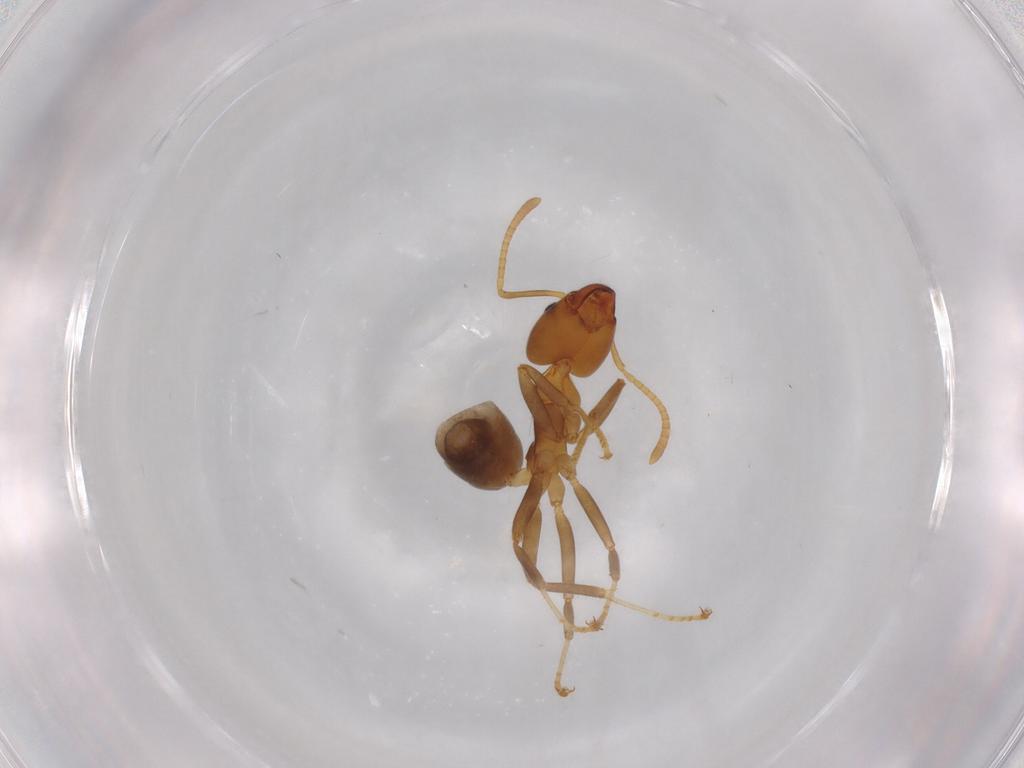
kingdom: Animalia
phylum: Arthropoda
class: Insecta
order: Hymenoptera
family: Formicidae
